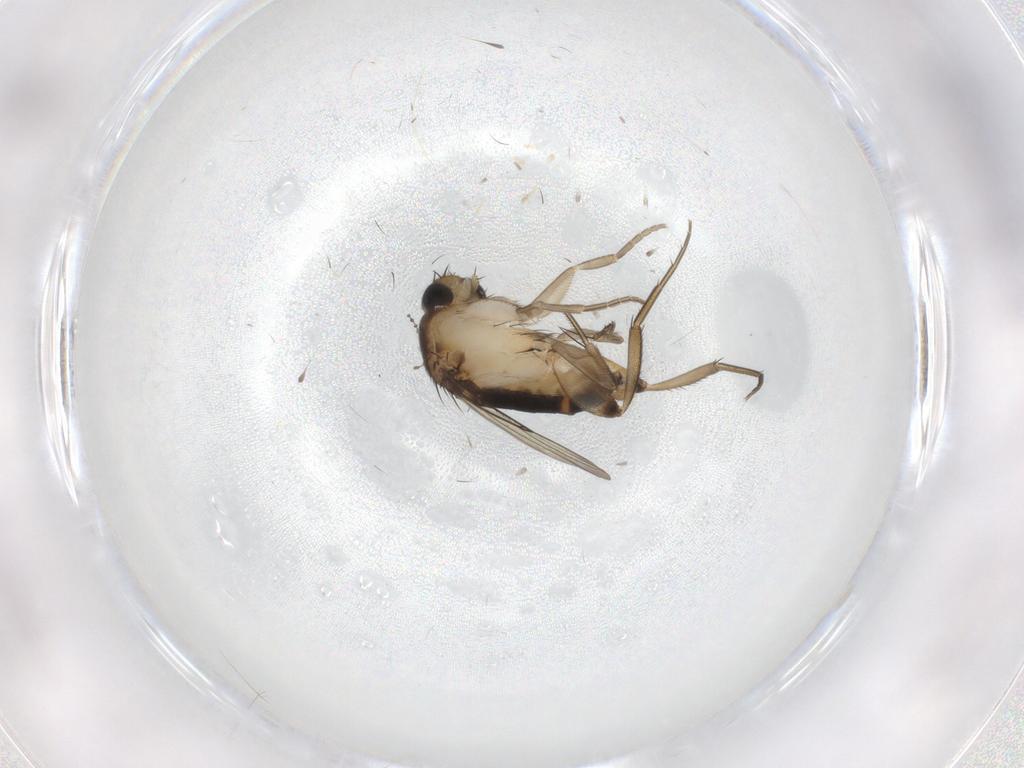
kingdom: Animalia
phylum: Arthropoda
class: Insecta
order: Diptera
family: Phoridae
